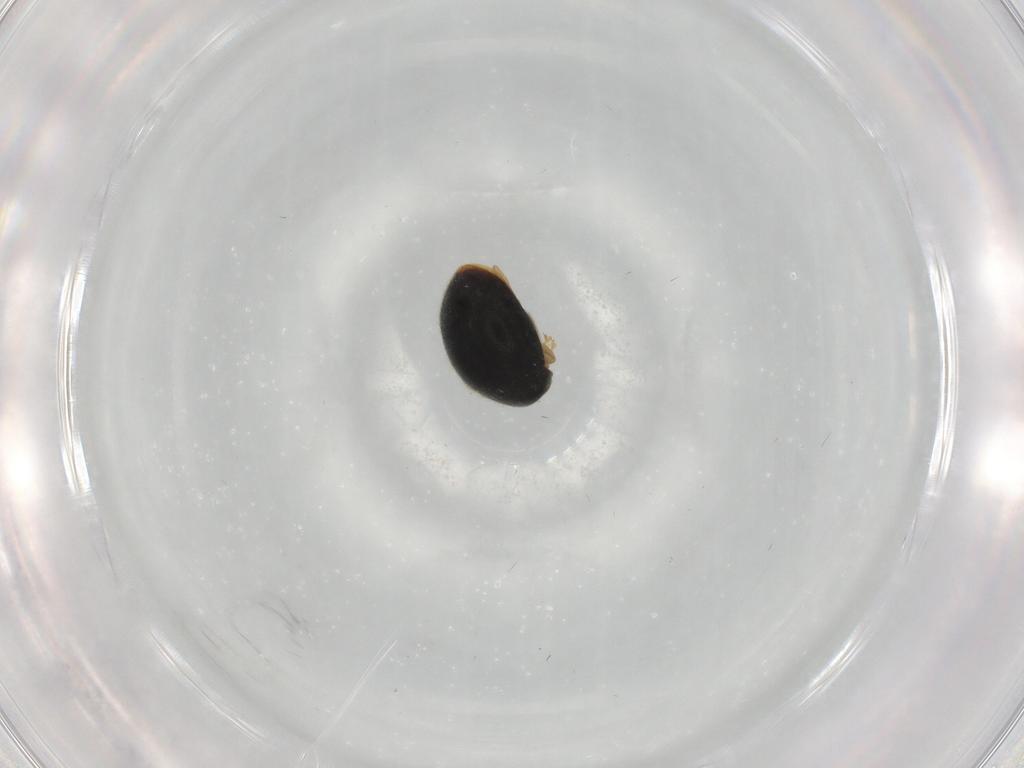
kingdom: Animalia
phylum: Arthropoda
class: Insecta
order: Coleoptera
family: Coccinellidae
